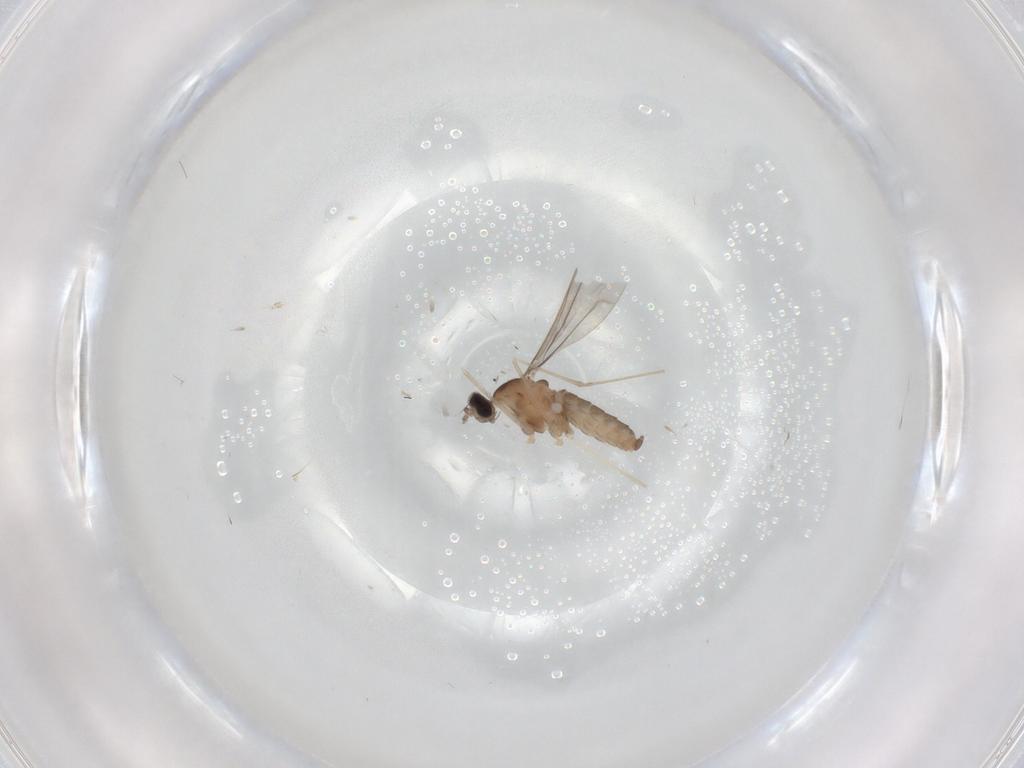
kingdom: Animalia
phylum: Arthropoda
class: Insecta
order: Diptera
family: Cecidomyiidae
